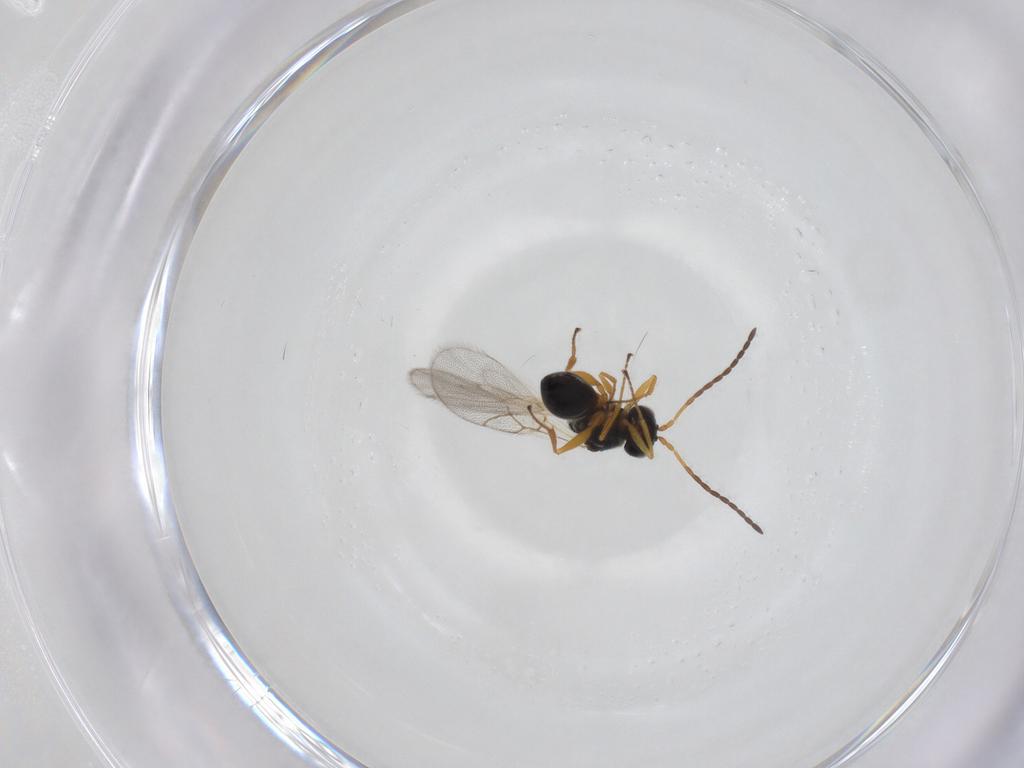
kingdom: Animalia
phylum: Arthropoda
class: Insecta
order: Hymenoptera
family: Figitidae
